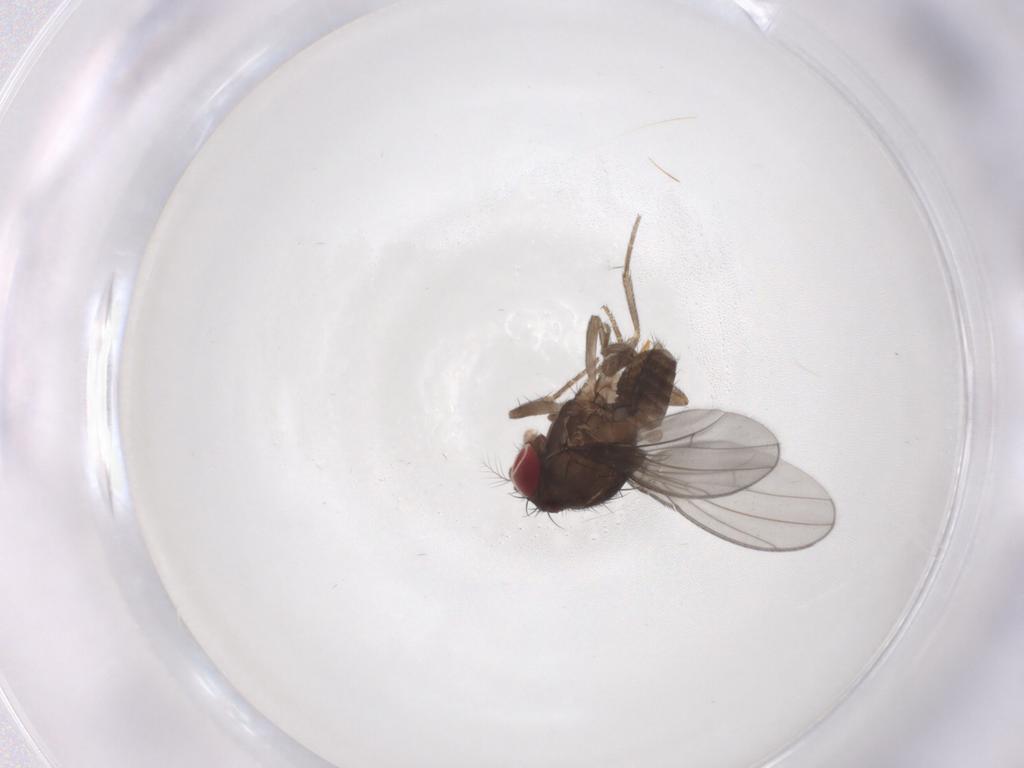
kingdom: Animalia
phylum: Arthropoda
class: Insecta
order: Diptera
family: Drosophilidae
